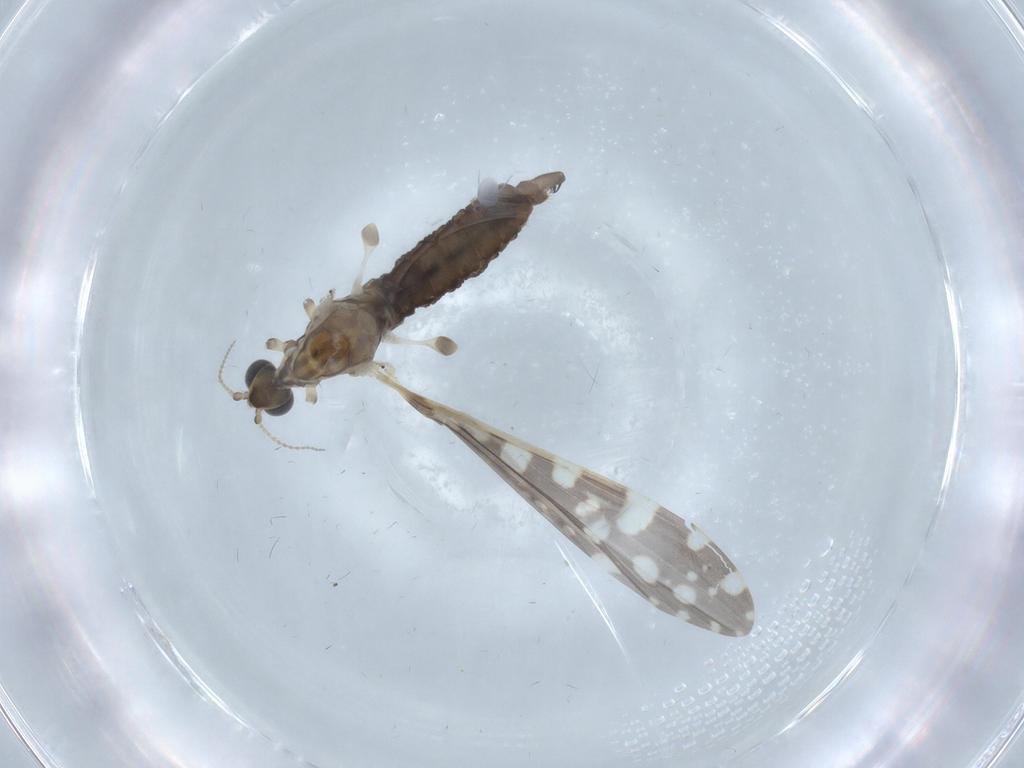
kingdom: Animalia
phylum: Arthropoda
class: Insecta
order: Diptera
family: Sciaridae
